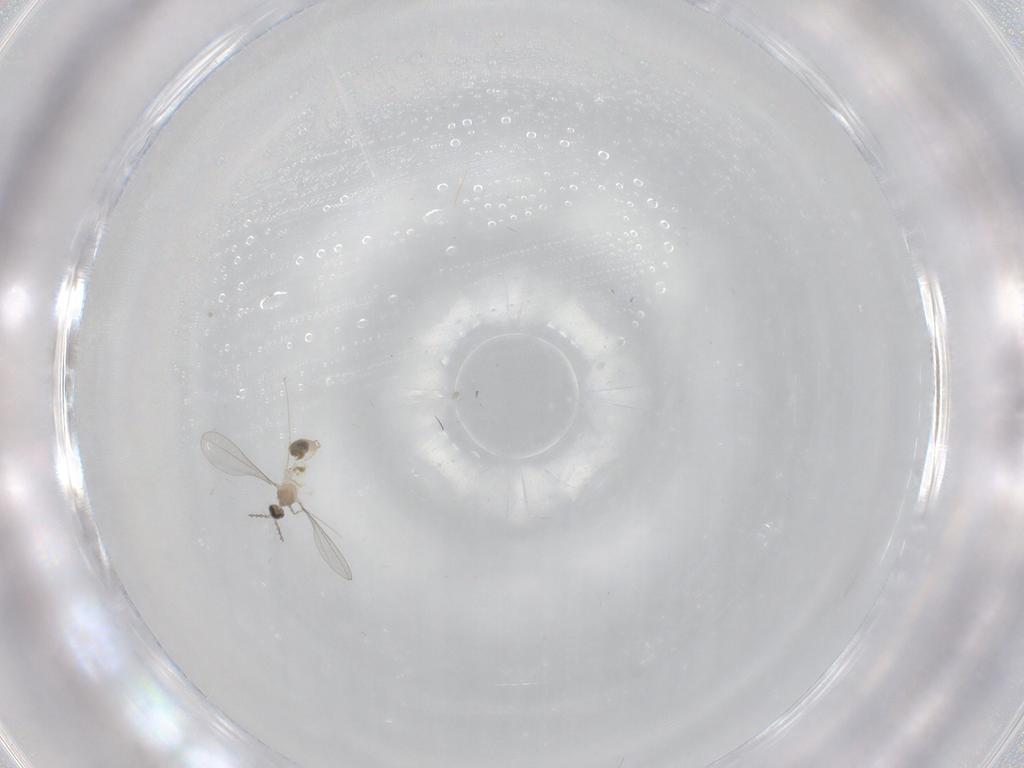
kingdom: Animalia
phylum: Arthropoda
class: Insecta
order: Diptera
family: Cecidomyiidae
